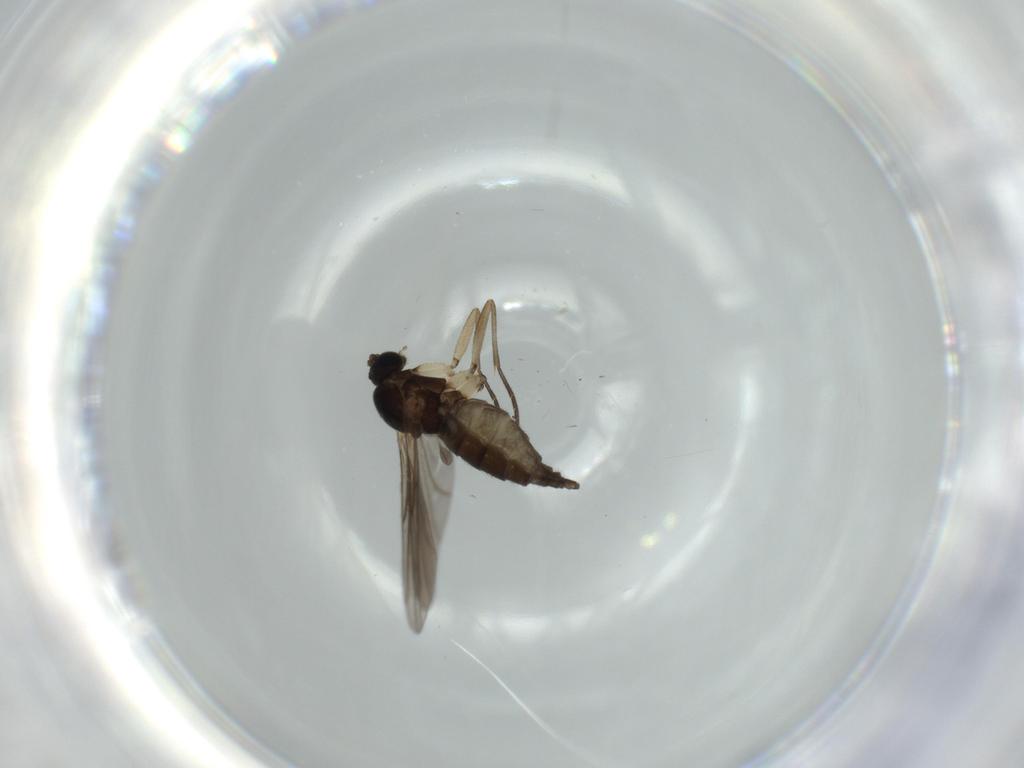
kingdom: Animalia
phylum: Arthropoda
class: Insecta
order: Diptera
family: Sciaridae
